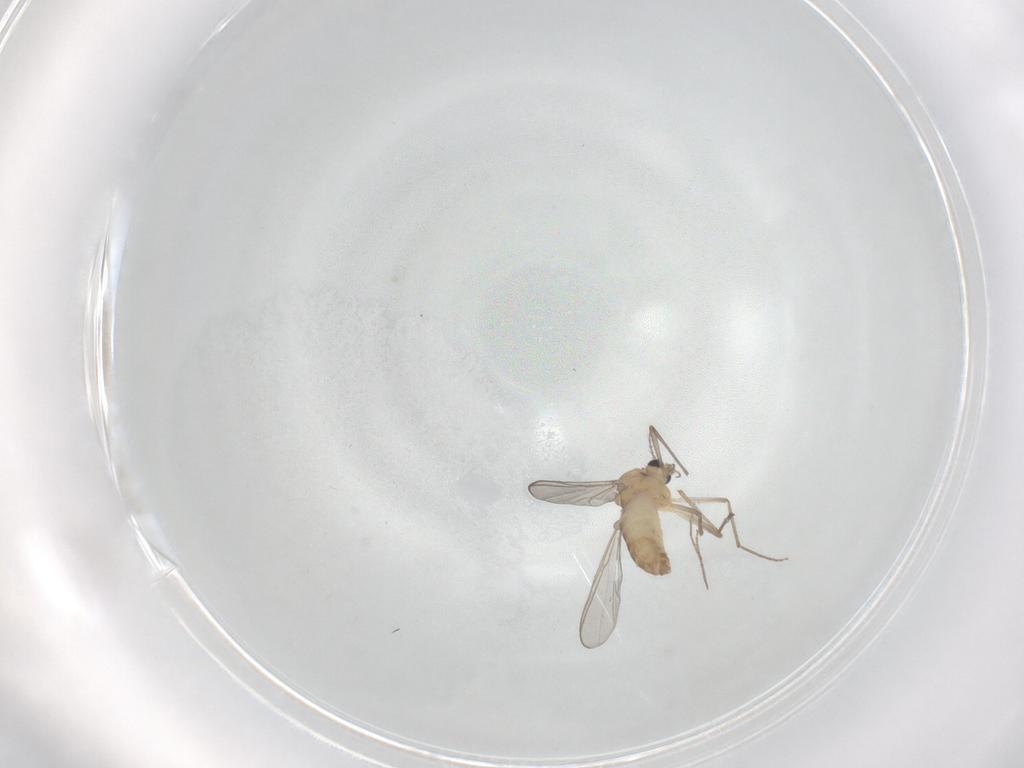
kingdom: Animalia
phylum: Arthropoda
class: Insecta
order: Diptera
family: Chironomidae
